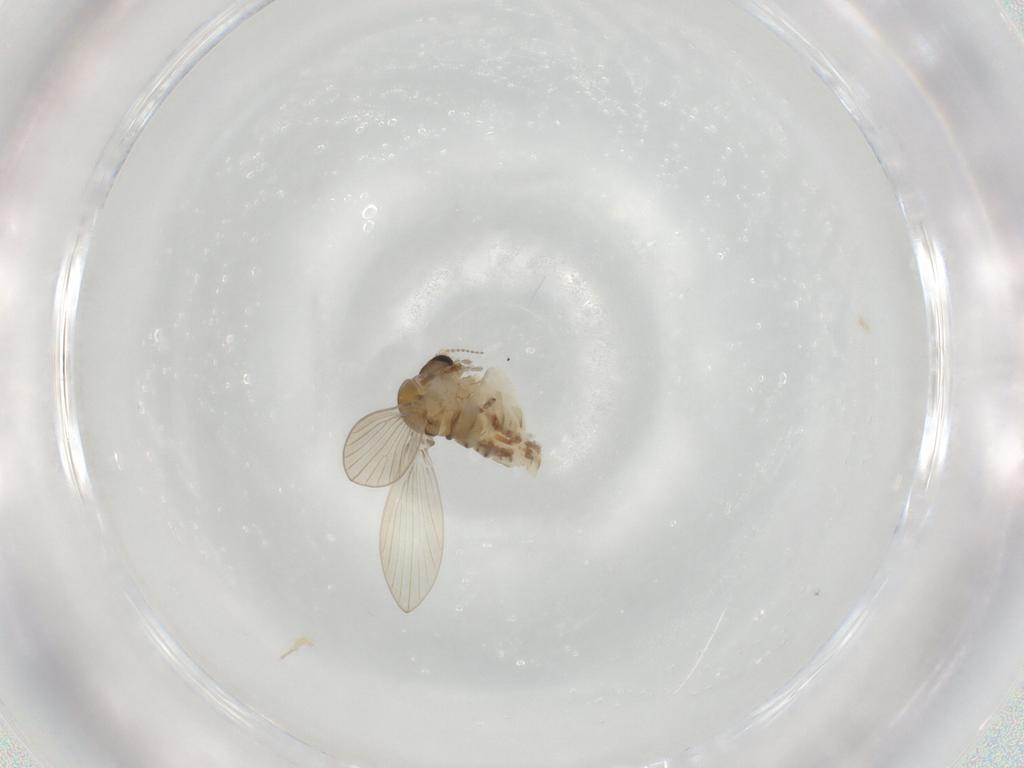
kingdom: Animalia
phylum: Arthropoda
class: Insecta
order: Diptera
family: Psychodidae
